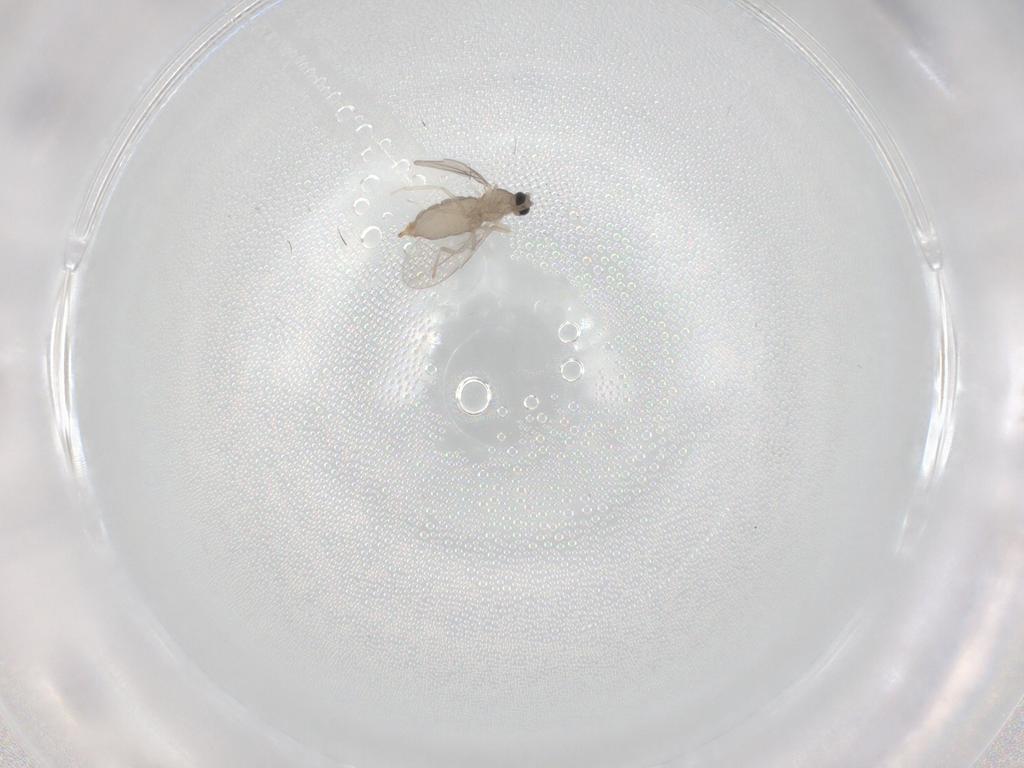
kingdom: Animalia
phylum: Arthropoda
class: Insecta
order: Diptera
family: Cecidomyiidae
